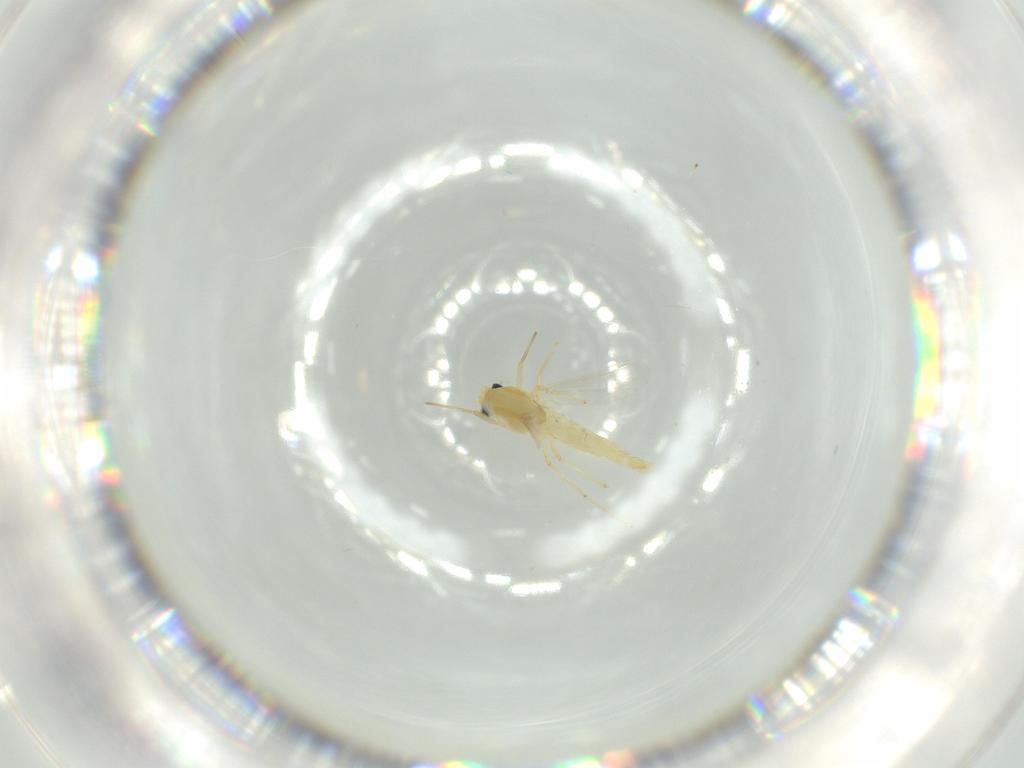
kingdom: Animalia
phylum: Arthropoda
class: Insecta
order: Diptera
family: Chironomidae
